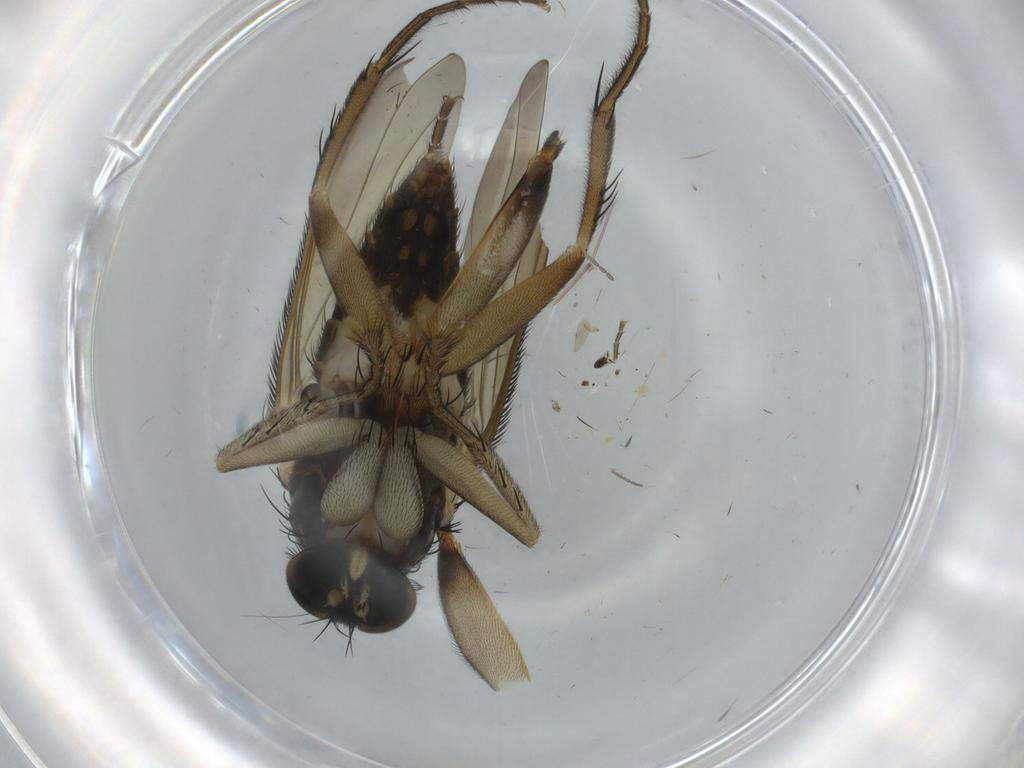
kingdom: Animalia
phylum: Arthropoda
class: Insecta
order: Diptera
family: Phoridae
